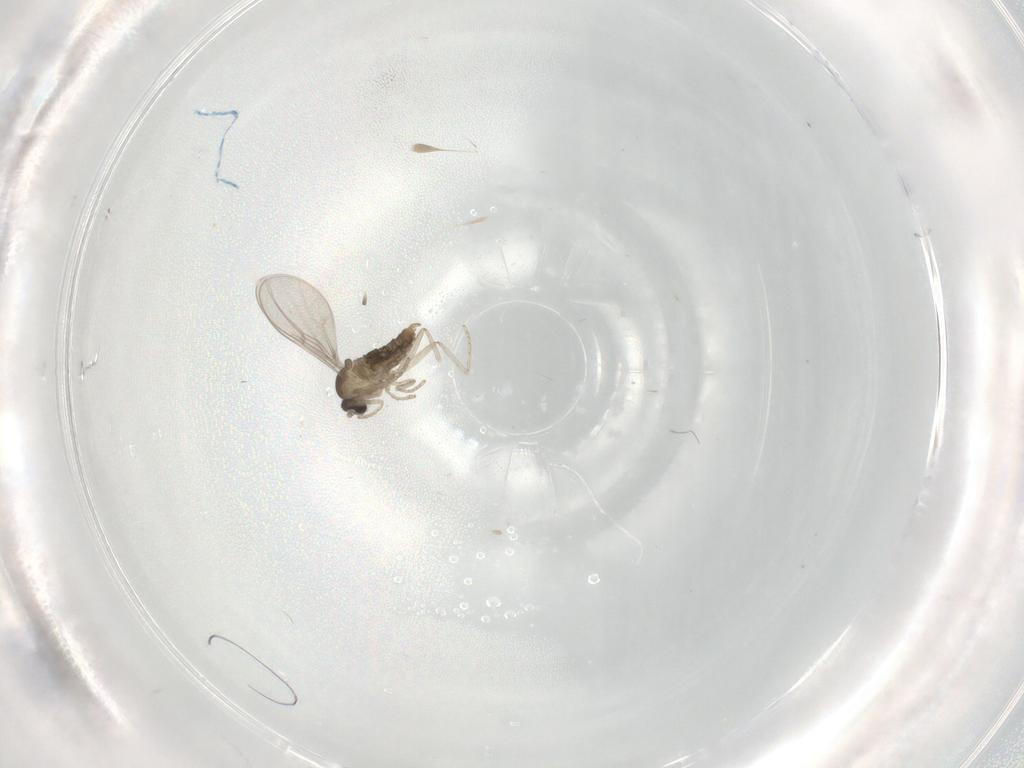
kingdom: Animalia
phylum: Arthropoda
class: Insecta
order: Diptera
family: Cecidomyiidae
